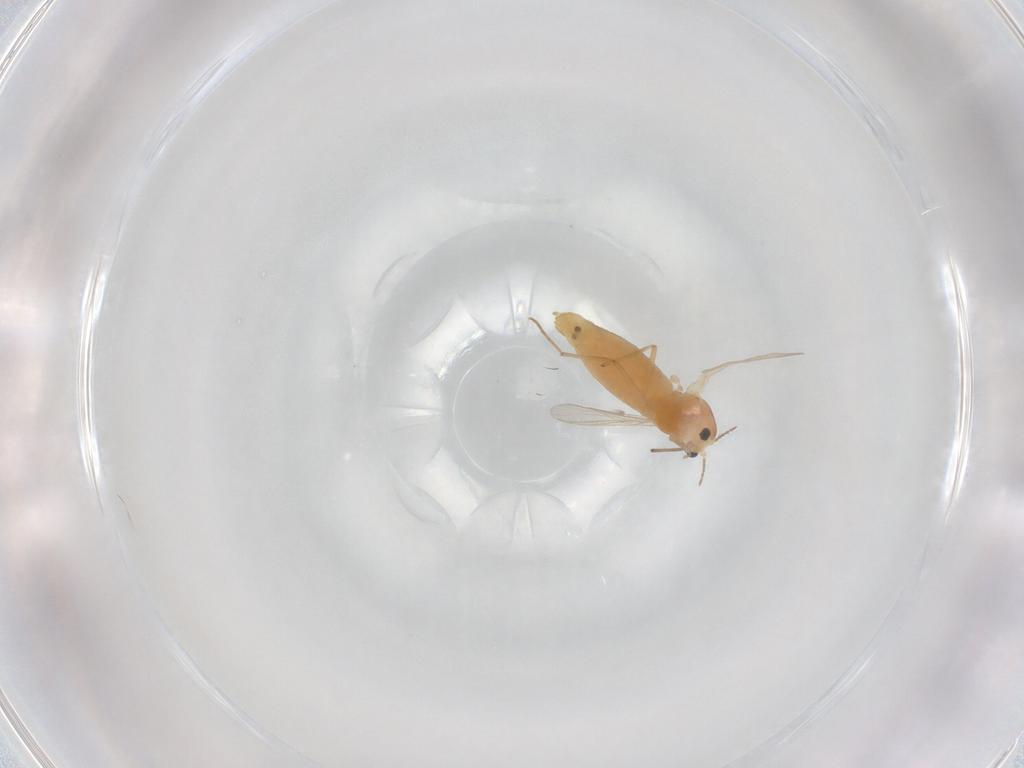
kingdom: Animalia
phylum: Arthropoda
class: Insecta
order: Diptera
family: Chironomidae
